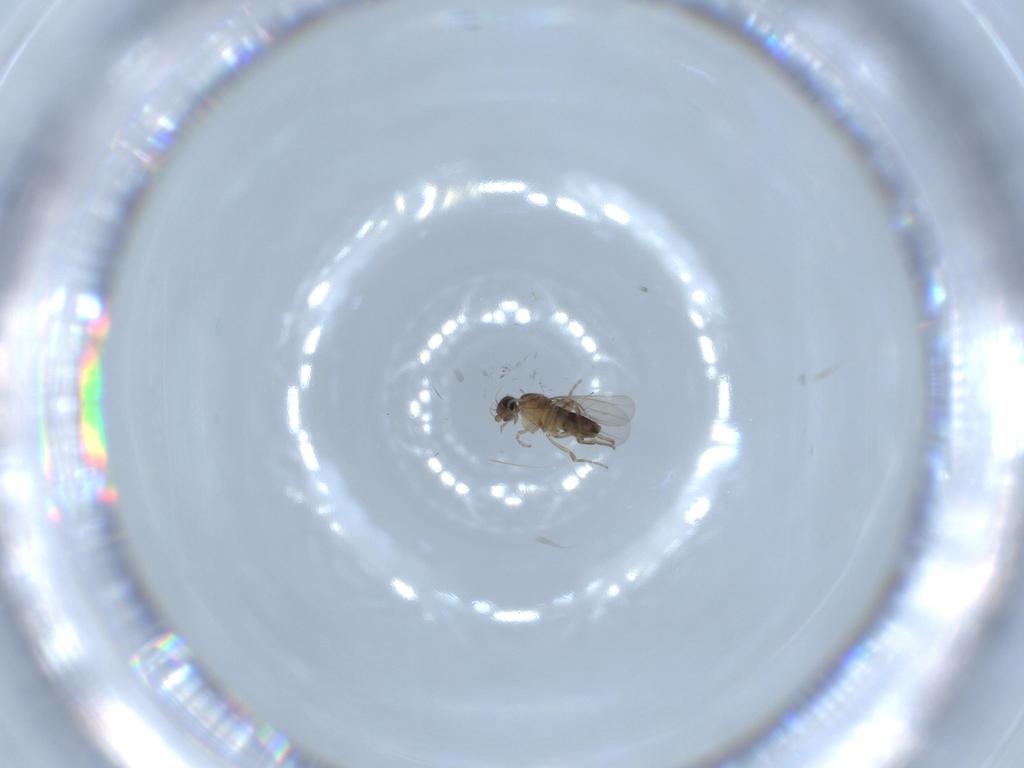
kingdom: Animalia
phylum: Arthropoda
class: Insecta
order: Diptera
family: Phoridae
